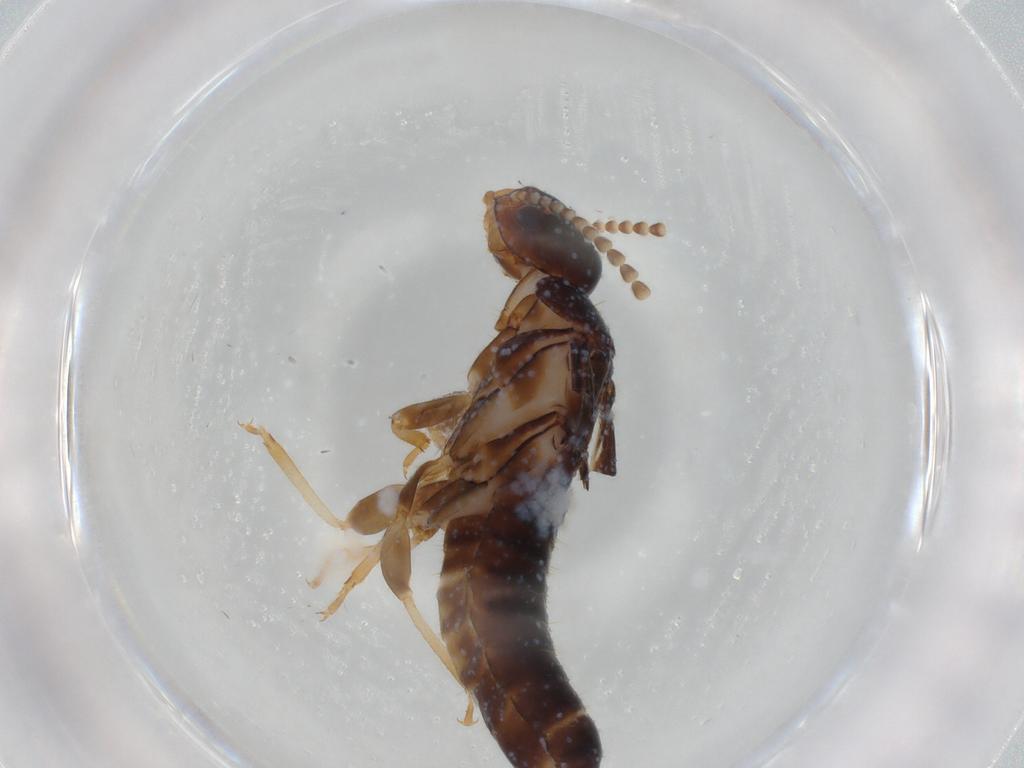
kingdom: Animalia
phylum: Arthropoda
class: Insecta
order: Blattodea
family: Kalotermitidae
